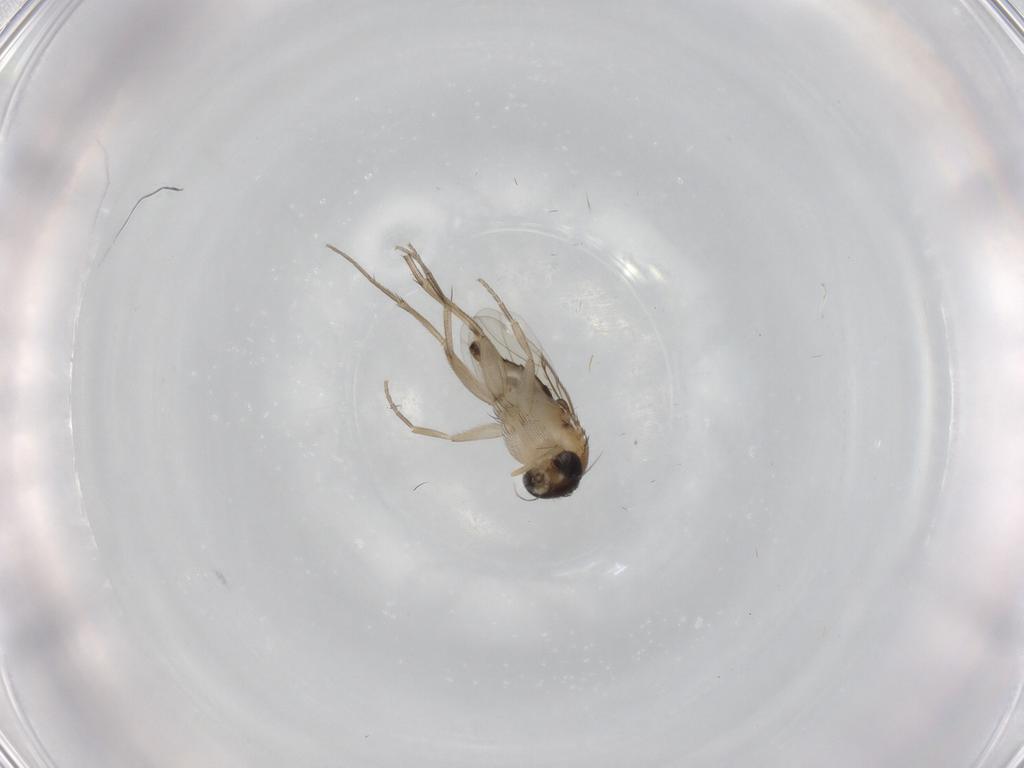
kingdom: Animalia
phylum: Arthropoda
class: Insecta
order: Diptera
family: Phoridae
